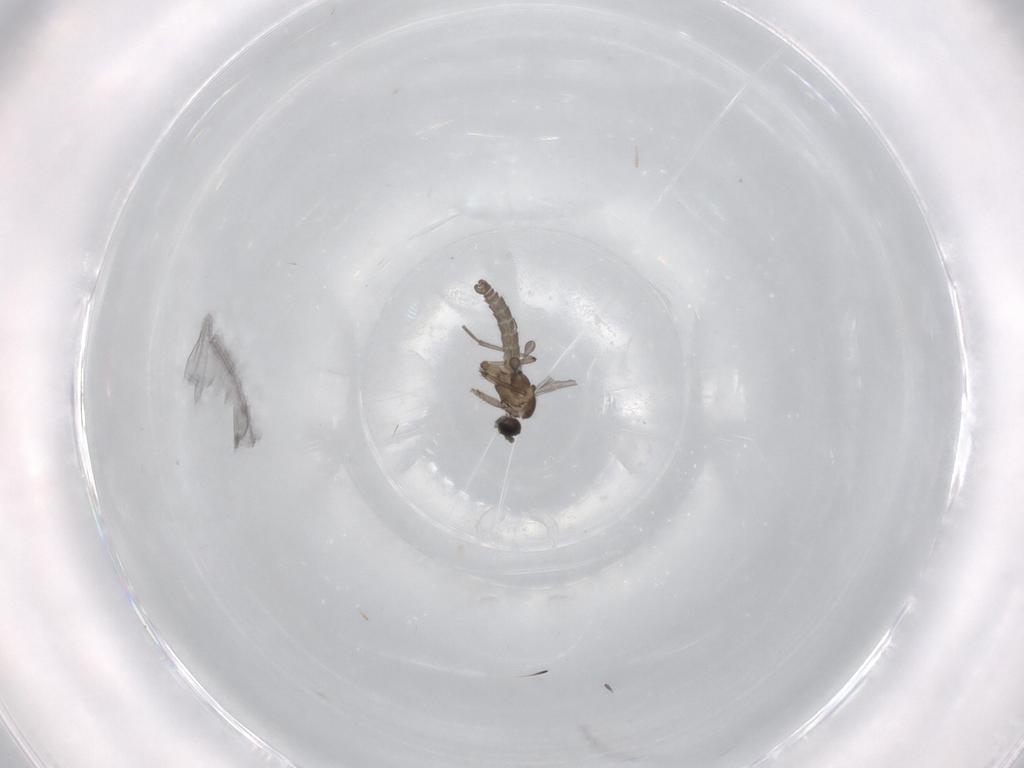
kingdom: Animalia
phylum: Arthropoda
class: Insecta
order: Diptera
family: Sciaridae
